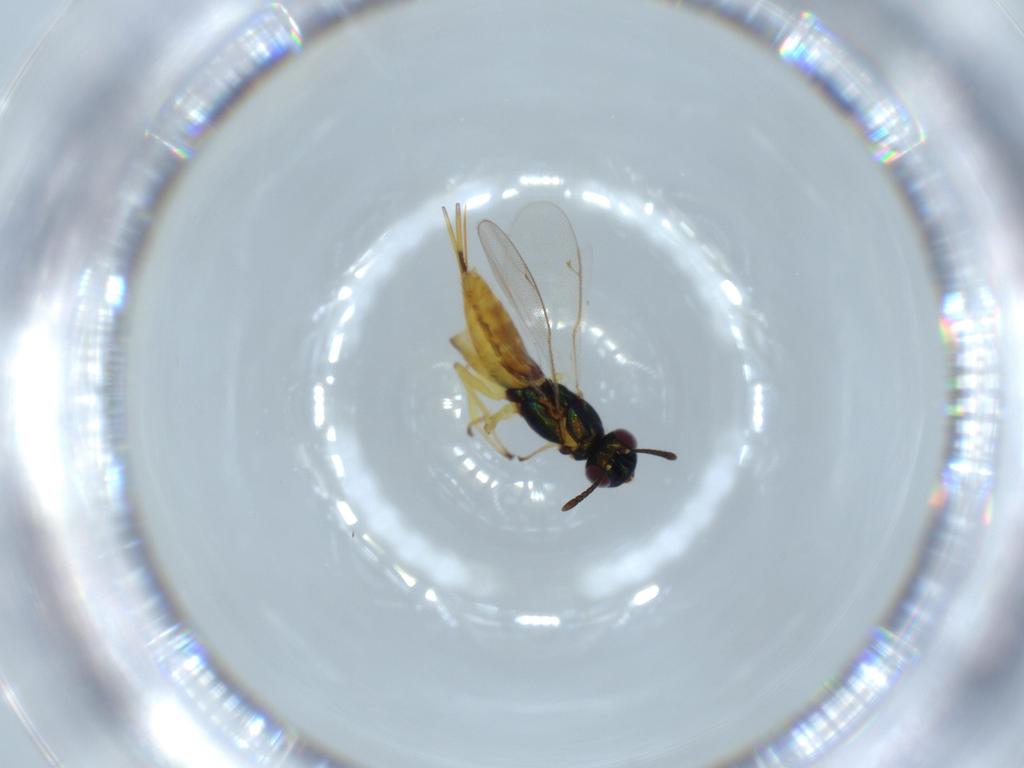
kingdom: Animalia
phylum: Arthropoda
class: Insecta
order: Hymenoptera
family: Eupelmidae
